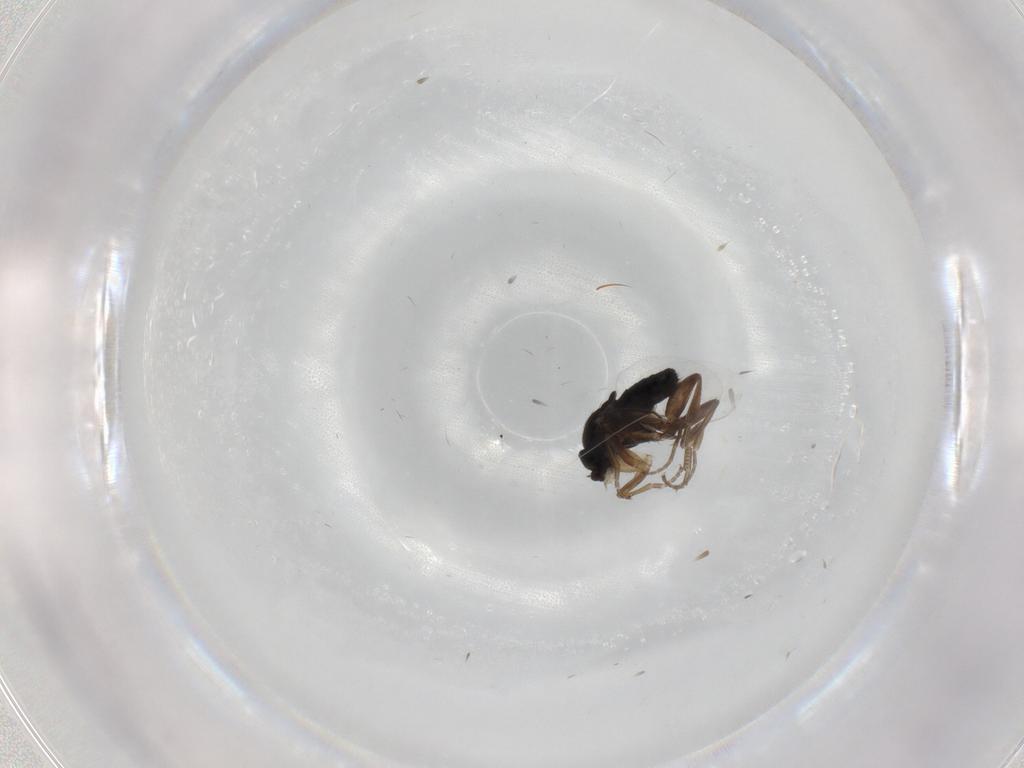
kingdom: Animalia
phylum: Arthropoda
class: Insecta
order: Diptera
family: Phoridae
